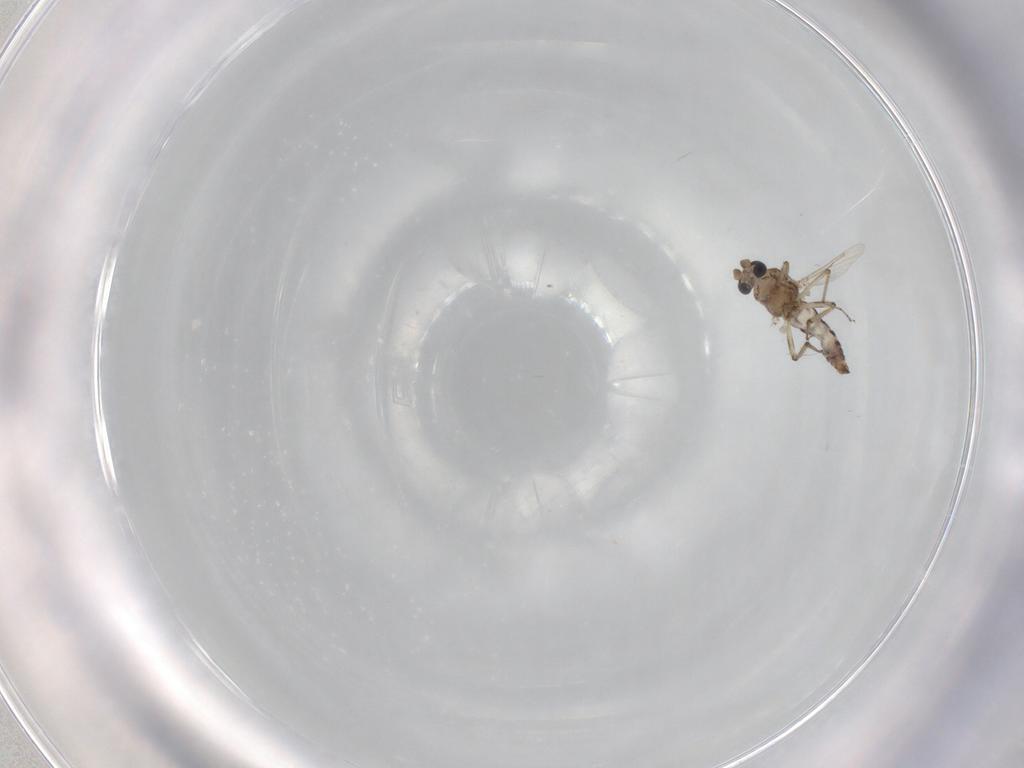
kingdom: Animalia
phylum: Arthropoda
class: Insecta
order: Diptera
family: Ceratopogonidae
